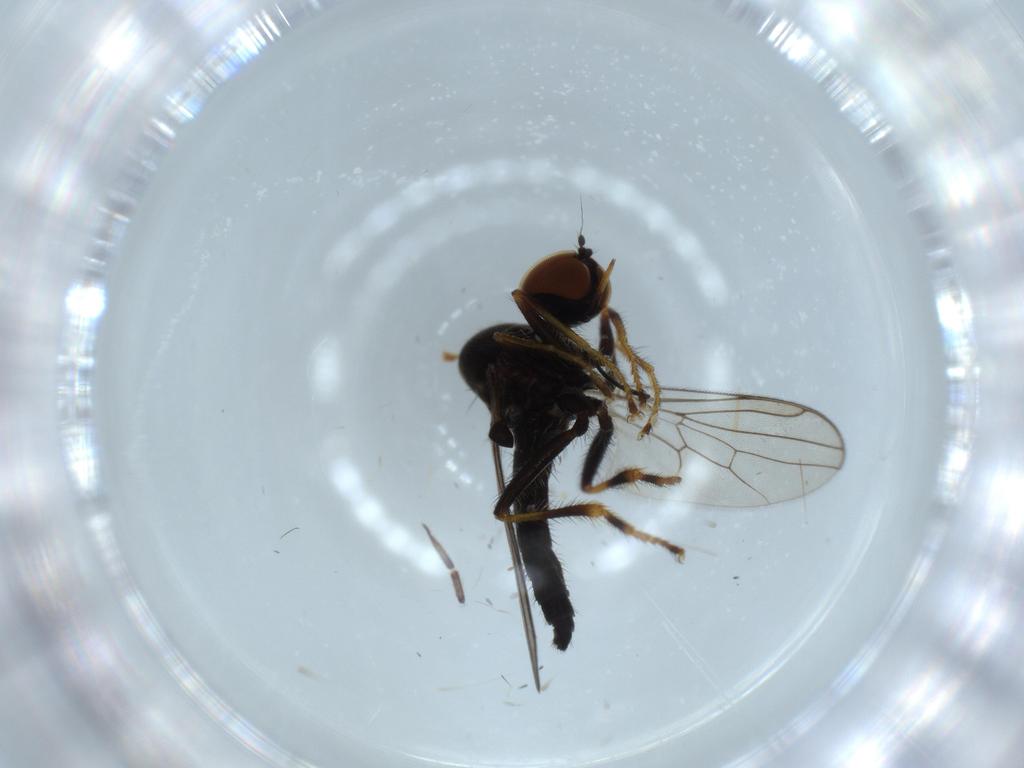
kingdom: Animalia
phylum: Arthropoda
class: Insecta
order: Diptera
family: Hybotidae
